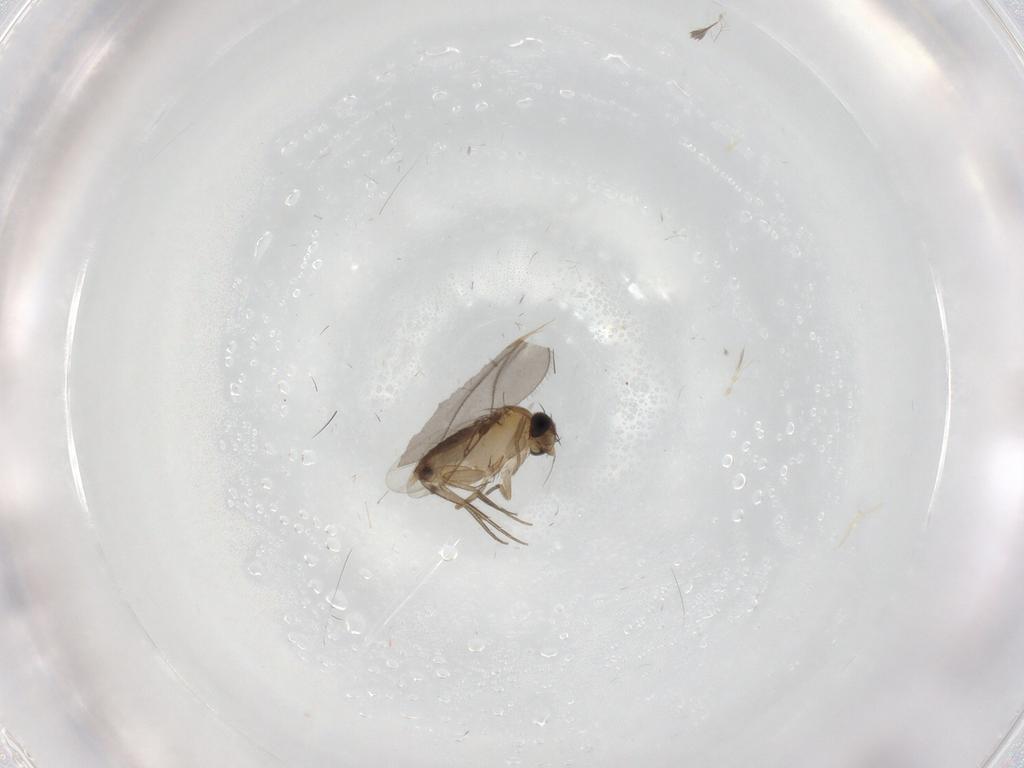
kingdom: Animalia
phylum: Arthropoda
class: Insecta
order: Diptera
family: Phoridae
